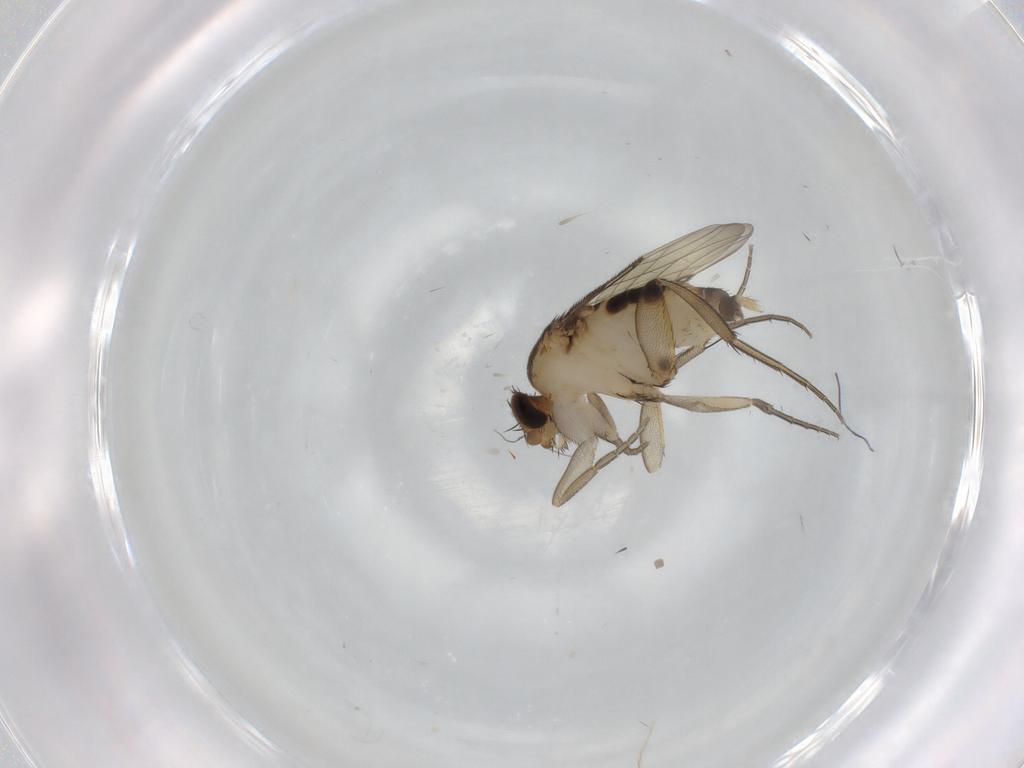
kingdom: Animalia
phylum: Arthropoda
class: Insecta
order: Diptera
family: Phoridae
